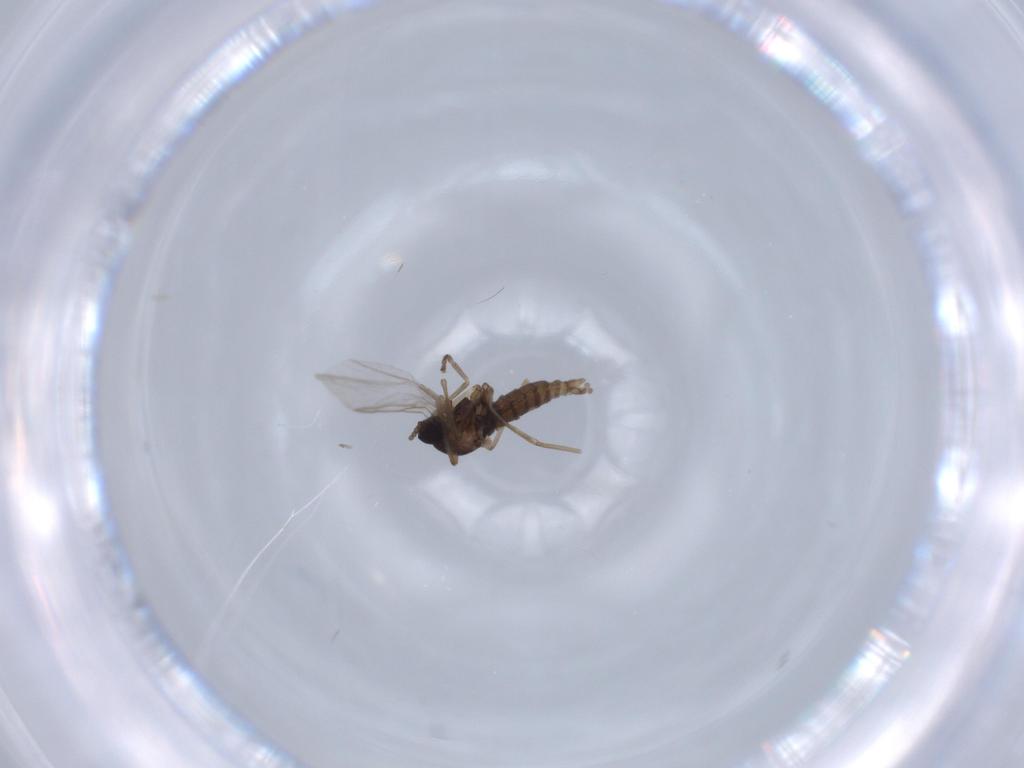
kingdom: Animalia
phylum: Arthropoda
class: Insecta
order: Diptera
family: Cecidomyiidae
